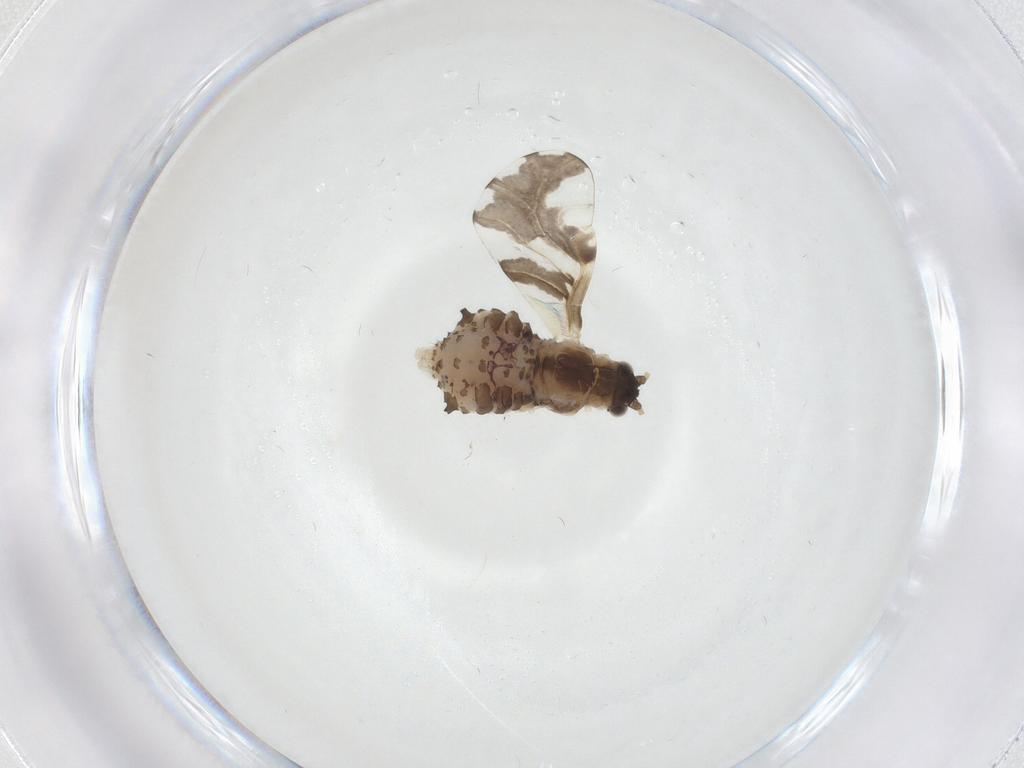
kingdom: Animalia
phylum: Arthropoda
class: Insecta
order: Hemiptera
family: Aphididae
